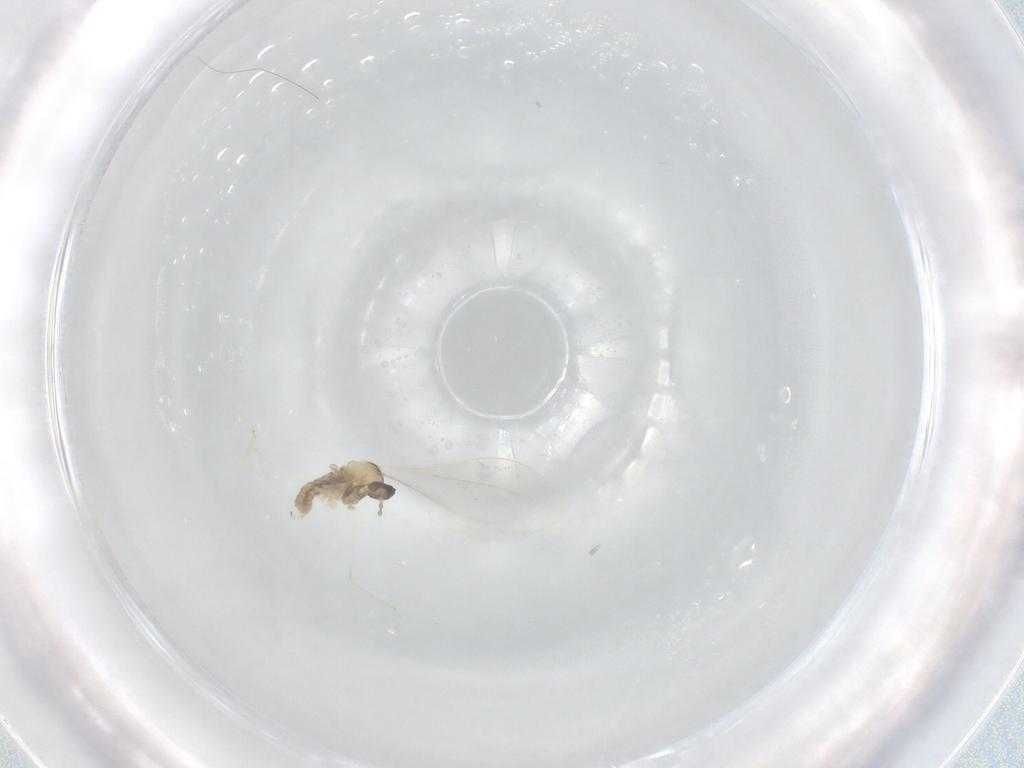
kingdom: Animalia
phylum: Arthropoda
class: Insecta
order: Diptera
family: Cecidomyiidae
